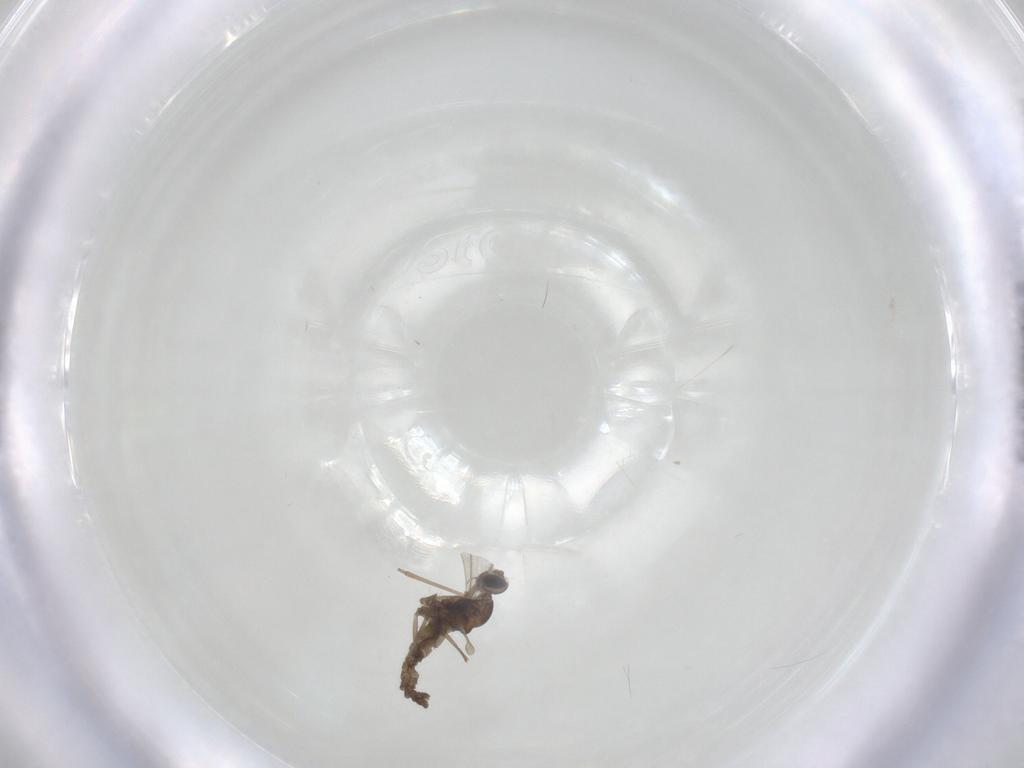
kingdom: Animalia
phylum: Arthropoda
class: Insecta
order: Diptera
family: Cecidomyiidae
